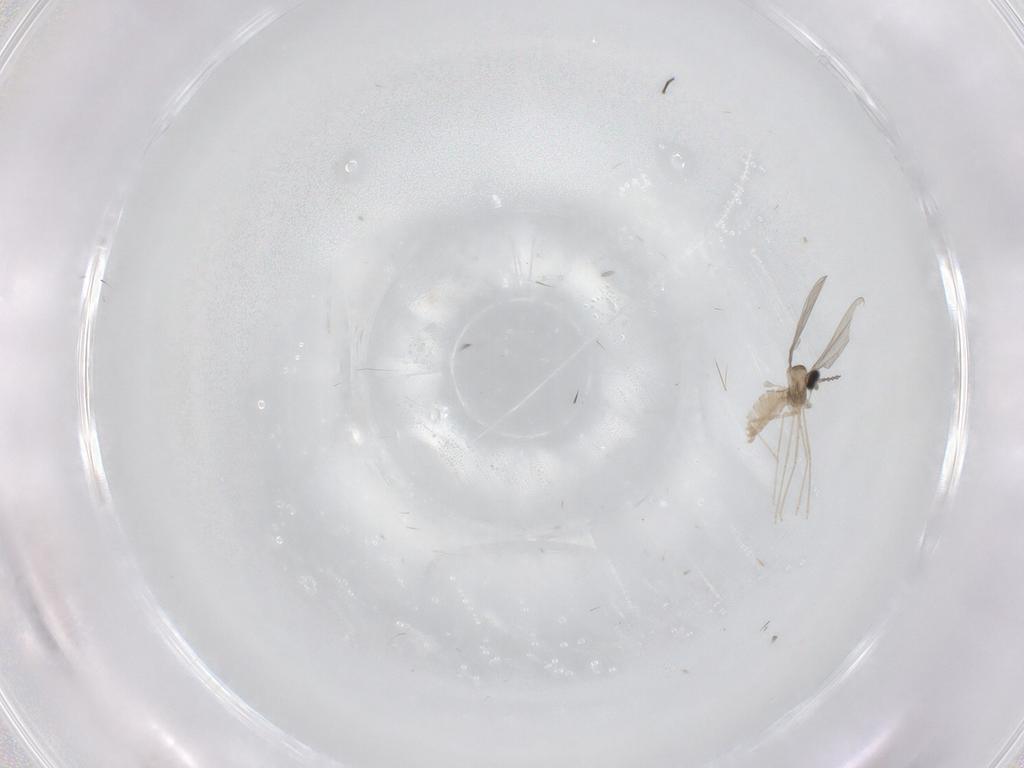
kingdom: Animalia
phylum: Arthropoda
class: Insecta
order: Diptera
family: Cecidomyiidae
